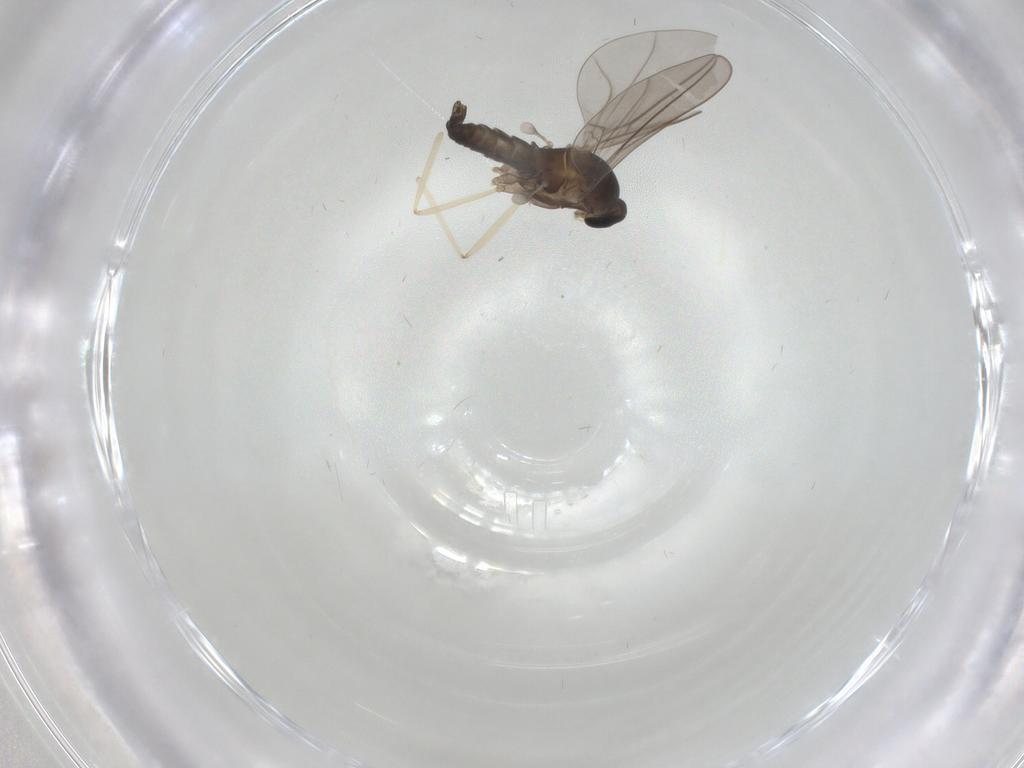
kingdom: Animalia
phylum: Arthropoda
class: Insecta
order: Diptera
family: Cecidomyiidae
